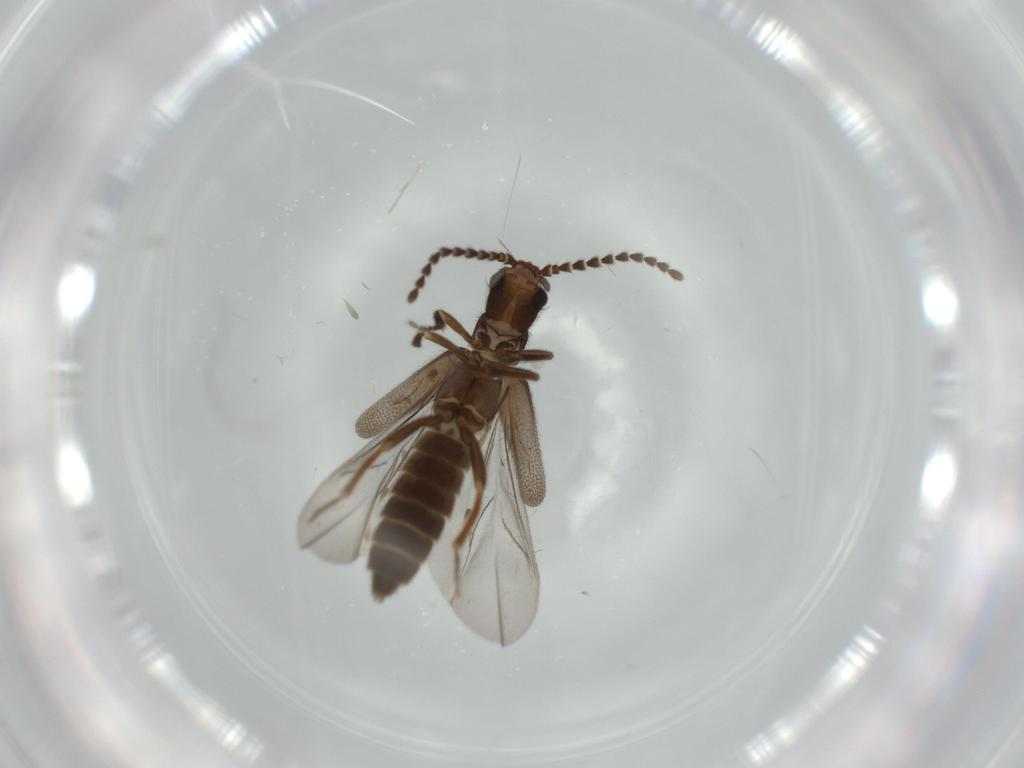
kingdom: Animalia
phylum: Arthropoda
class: Insecta
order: Coleoptera
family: Omethidae
